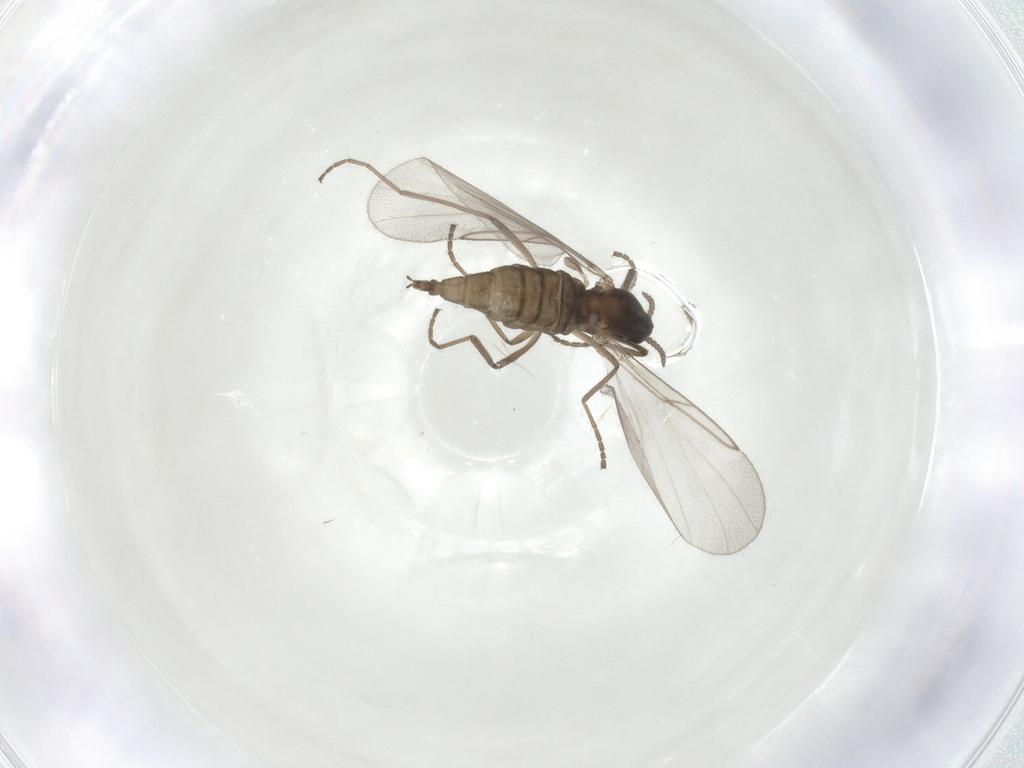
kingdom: Animalia
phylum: Arthropoda
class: Insecta
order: Diptera
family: Cecidomyiidae
